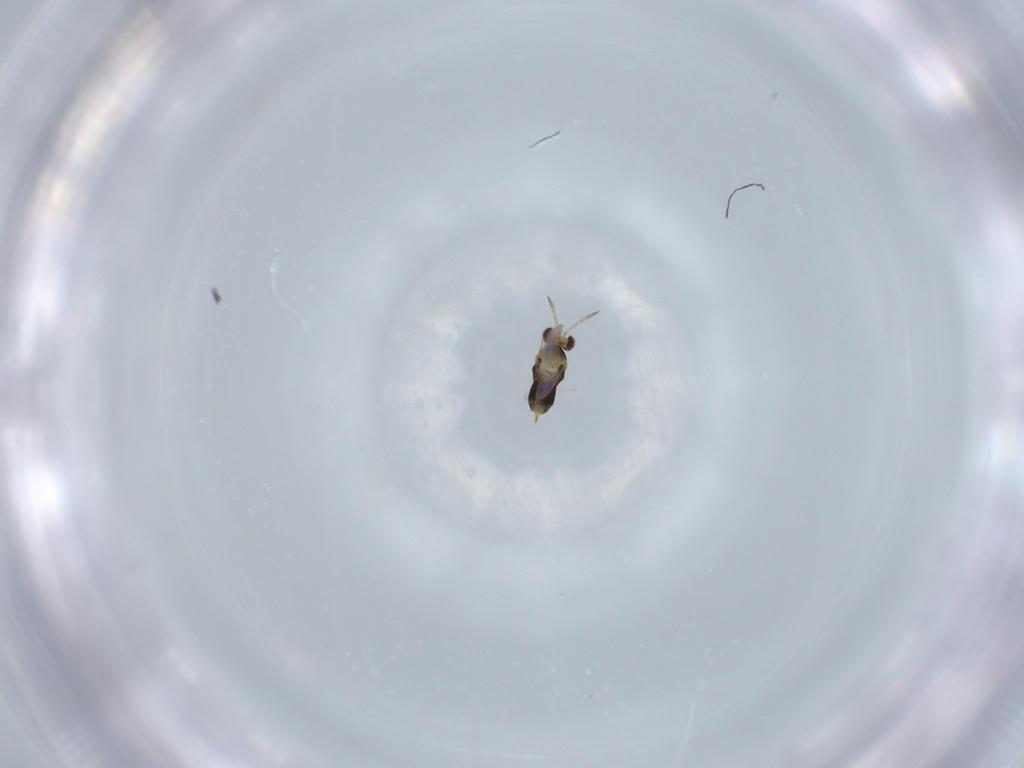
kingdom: Animalia
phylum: Arthropoda
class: Insecta
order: Hymenoptera
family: Aphelinidae
